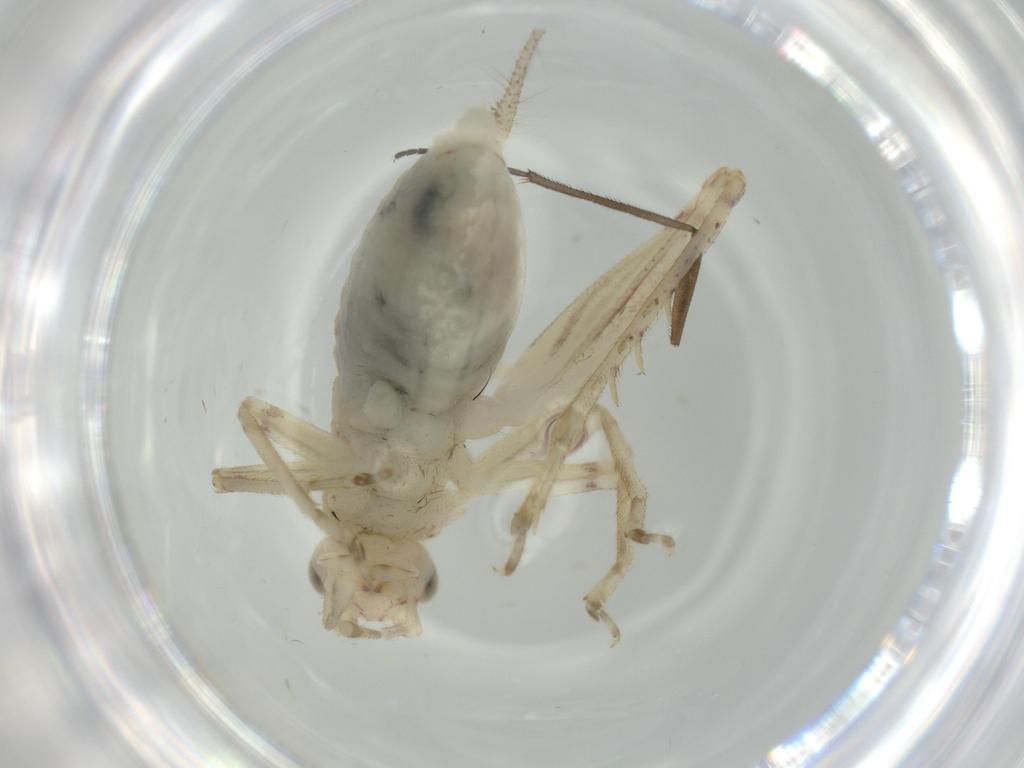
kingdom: Animalia
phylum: Arthropoda
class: Insecta
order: Orthoptera
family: Trigonidiidae
